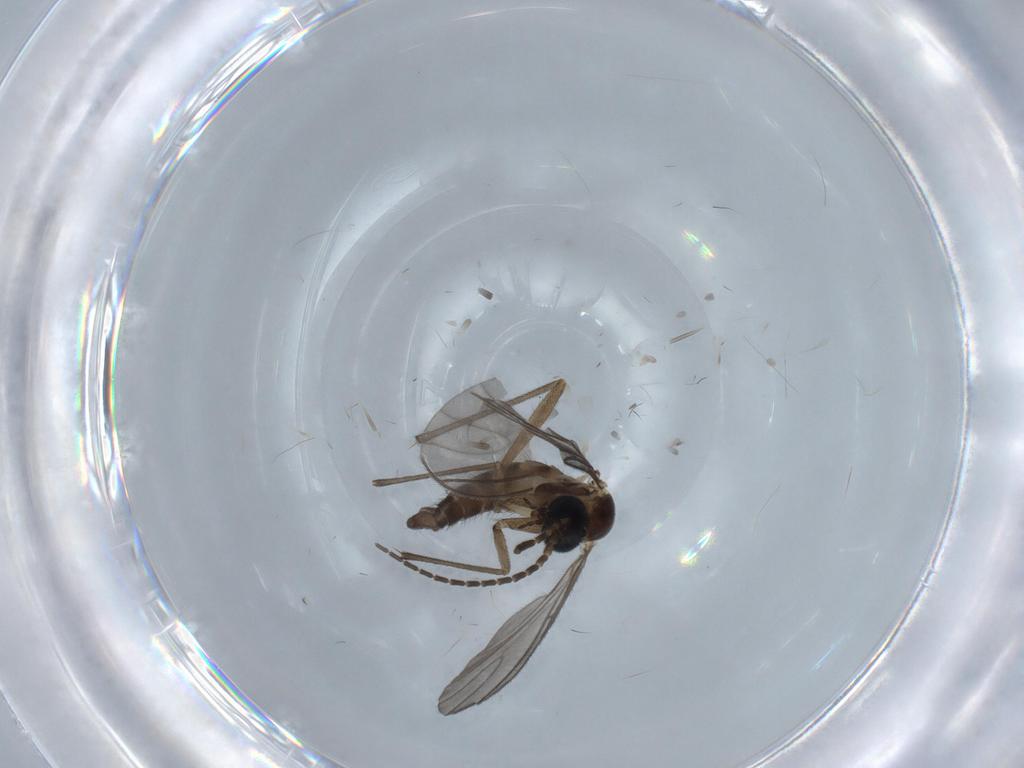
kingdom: Animalia
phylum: Arthropoda
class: Insecta
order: Diptera
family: Sciaridae
